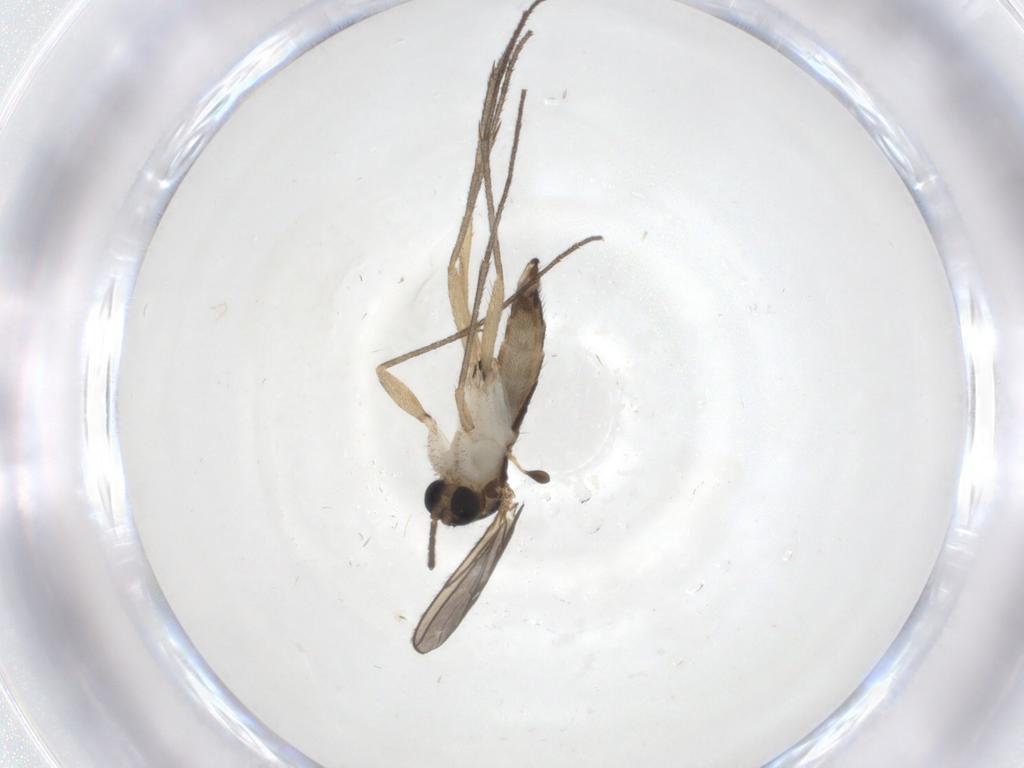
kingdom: Animalia
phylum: Arthropoda
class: Insecta
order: Diptera
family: Sciaridae
